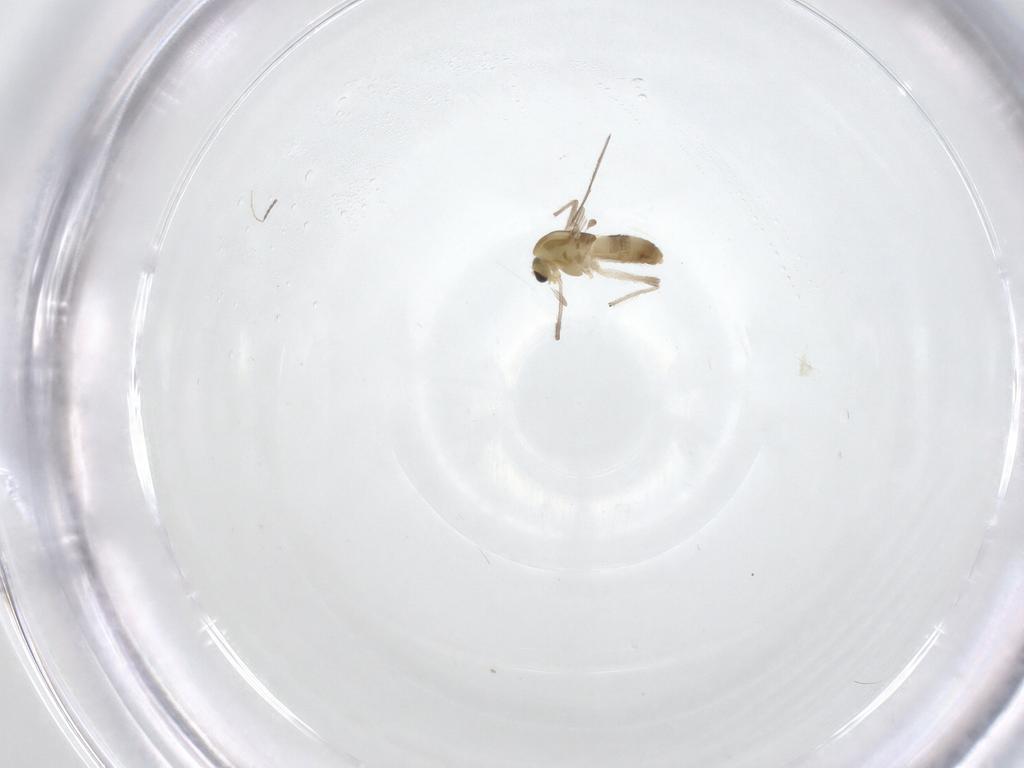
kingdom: Animalia
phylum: Arthropoda
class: Insecta
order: Diptera
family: Chironomidae
